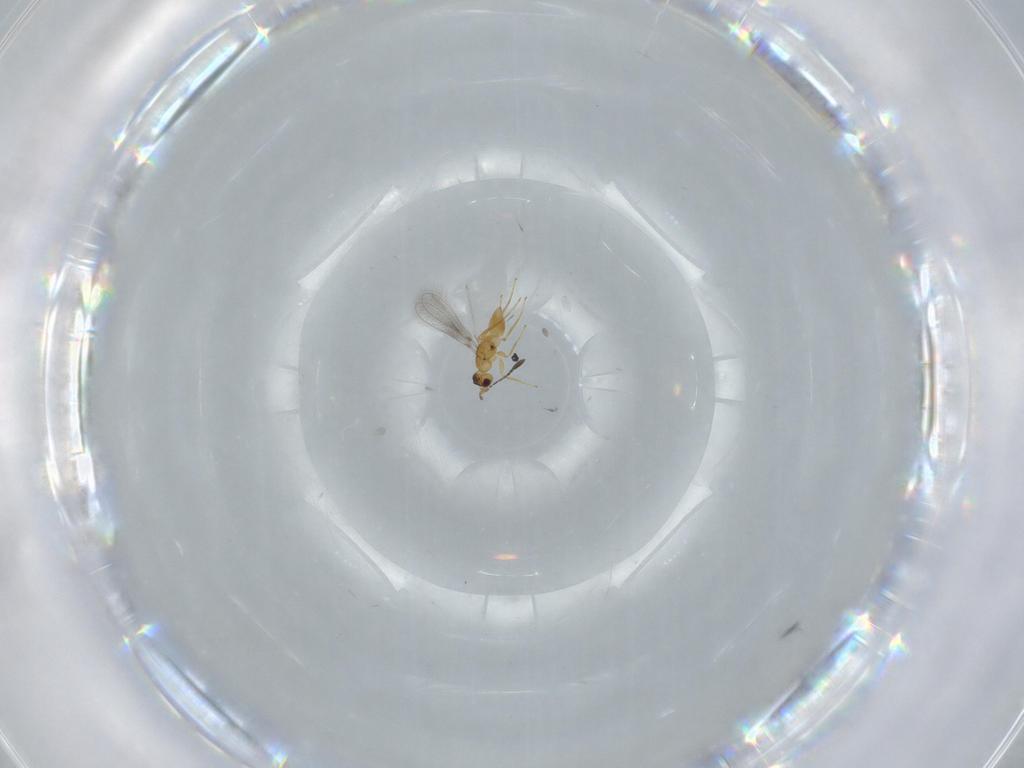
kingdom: Animalia
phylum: Arthropoda
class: Insecta
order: Hymenoptera
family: Mymaridae
